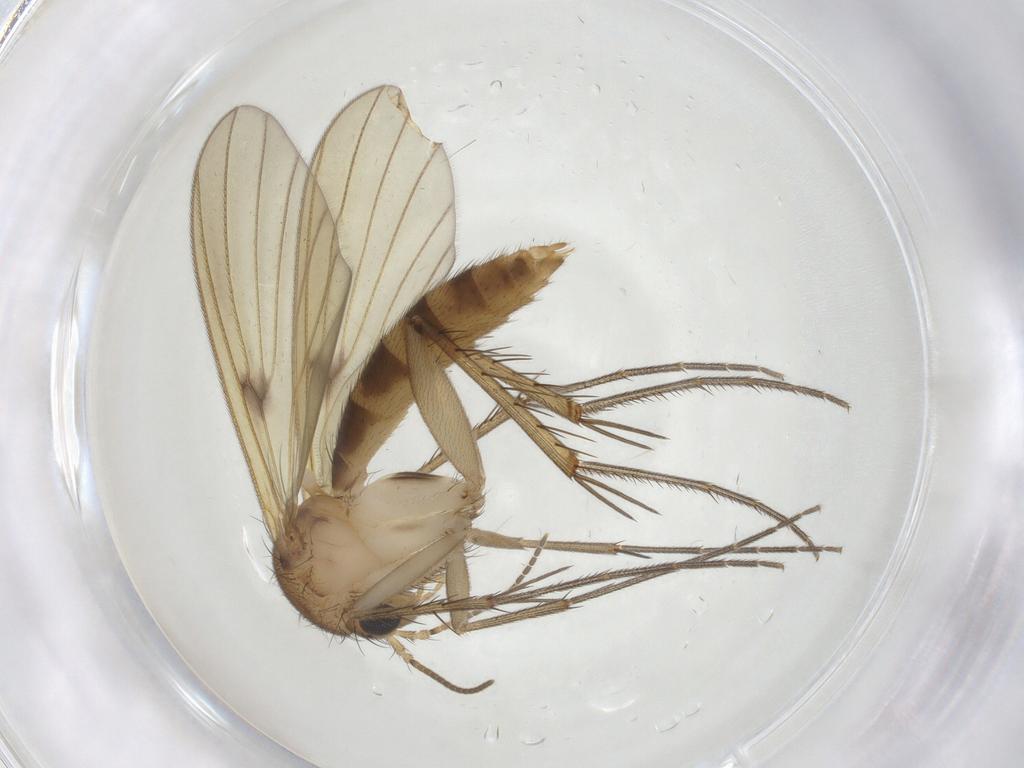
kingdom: Animalia
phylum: Arthropoda
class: Insecta
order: Diptera
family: Mycetophilidae
